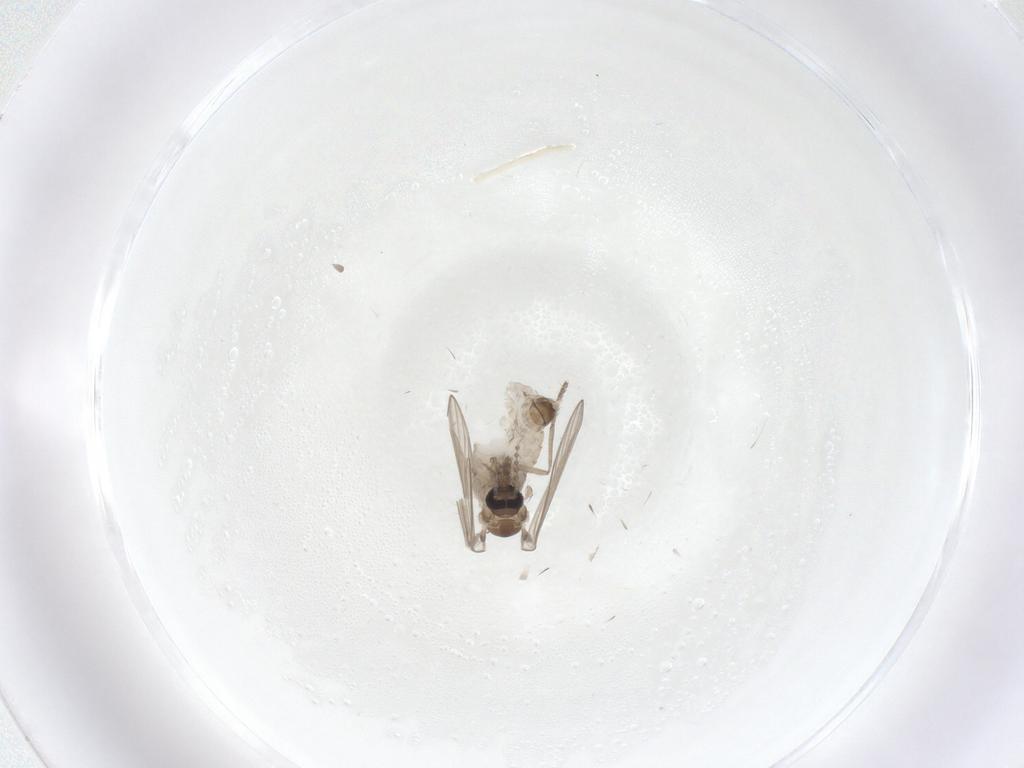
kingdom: Animalia
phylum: Arthropoda
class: Insecta
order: Diptera
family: Psychodidae
